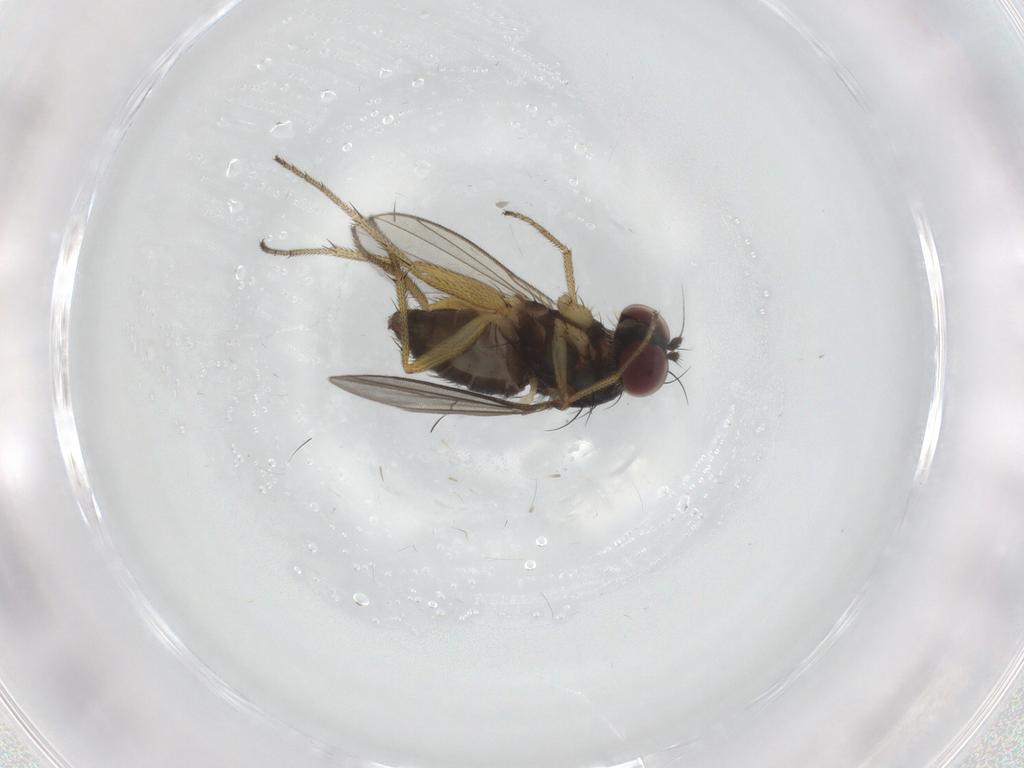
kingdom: Animalia
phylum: Arthropoda
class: Insecta
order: Diptera
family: Dolichopodidae
